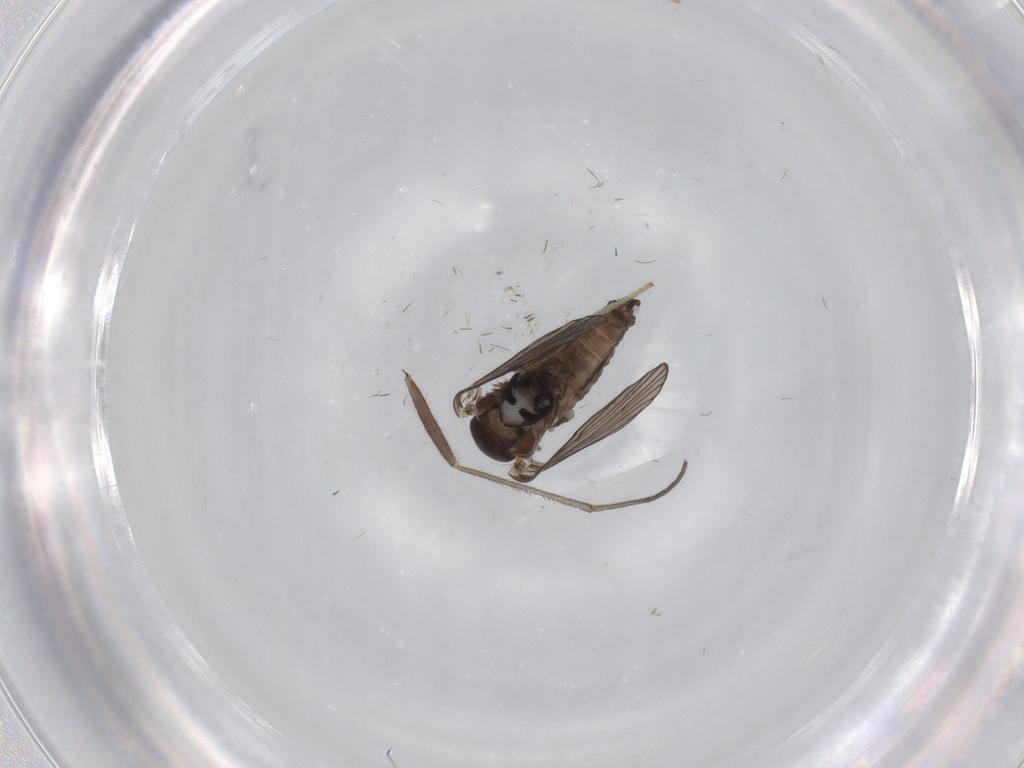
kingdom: Animalia
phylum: Arthropoda
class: Insecta
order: Diptera
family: Psychodidae
